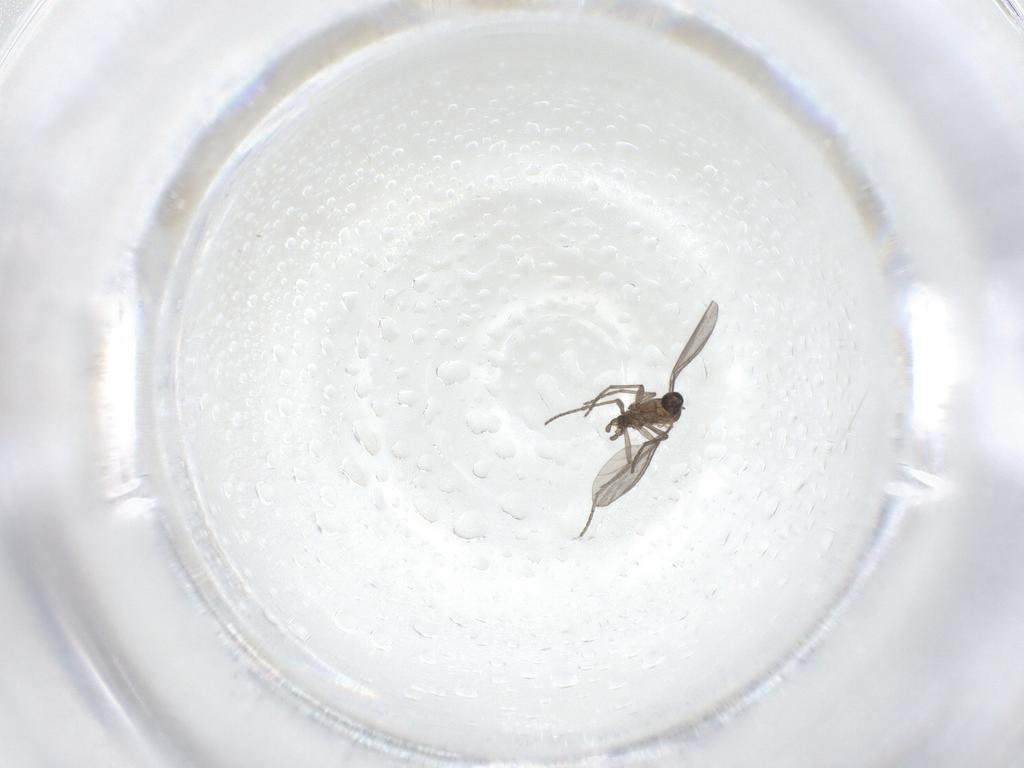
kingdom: Animalia
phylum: Arthropoda
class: Insecta
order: Diptera
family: Sciaridae
